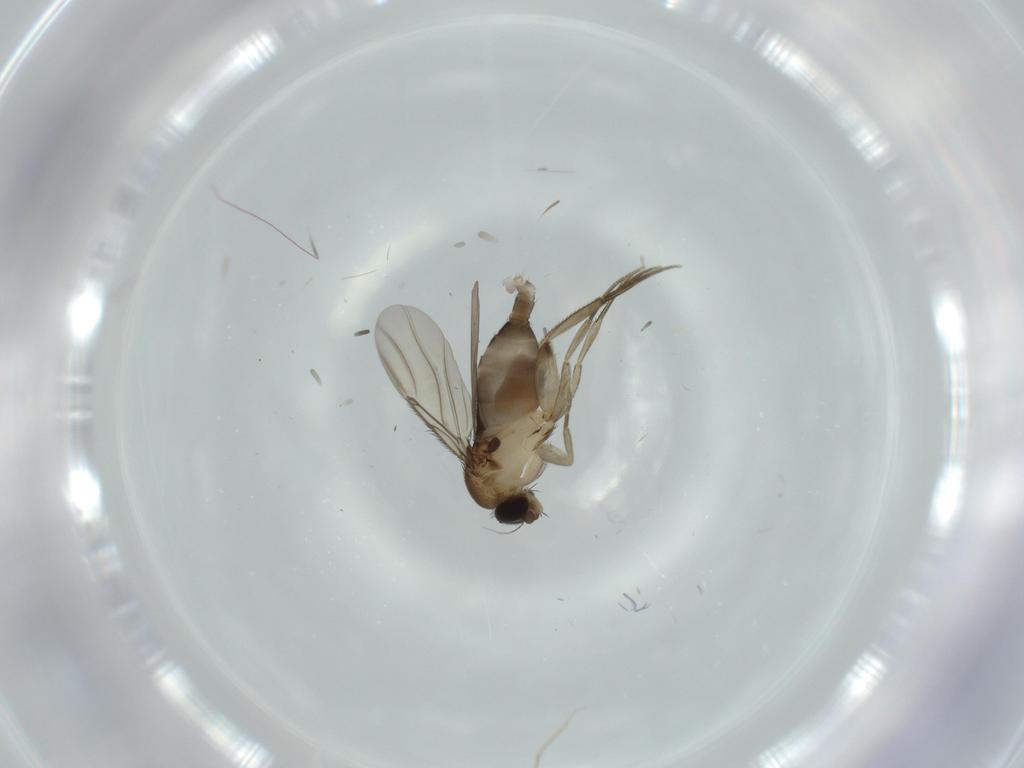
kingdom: Animalia
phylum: Arthropoda
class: Insecta
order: Diptera
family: Phoridae
